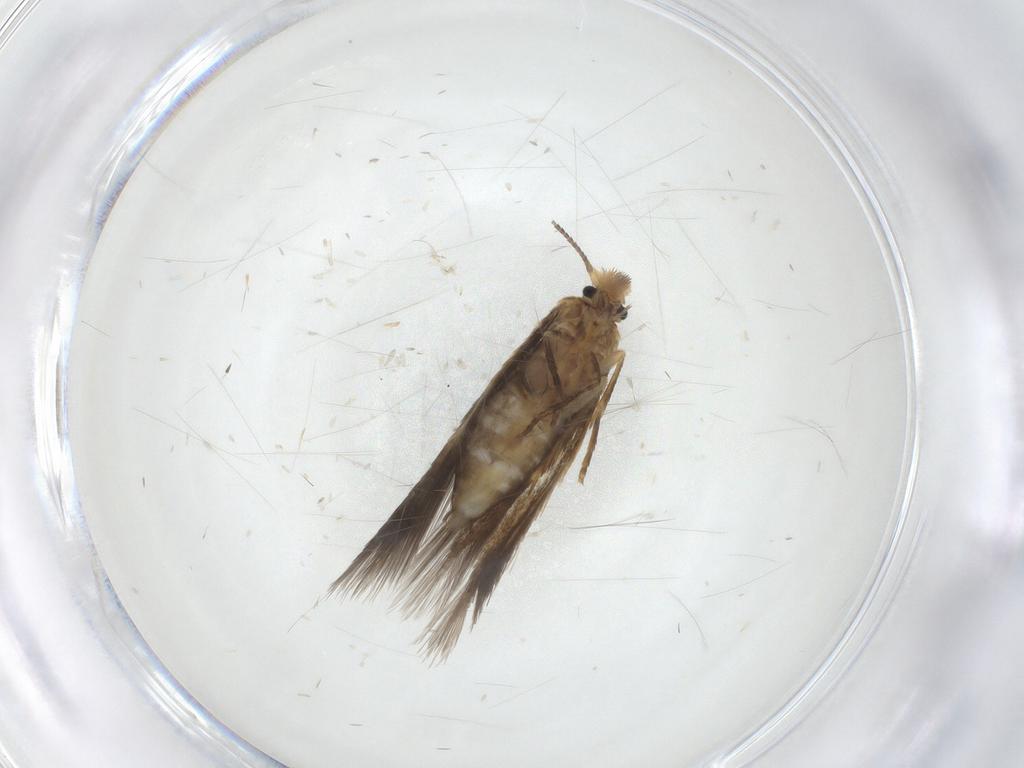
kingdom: Animalia
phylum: Arthropoda
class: Insecta
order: Lepidoptera
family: Nepticulidae
